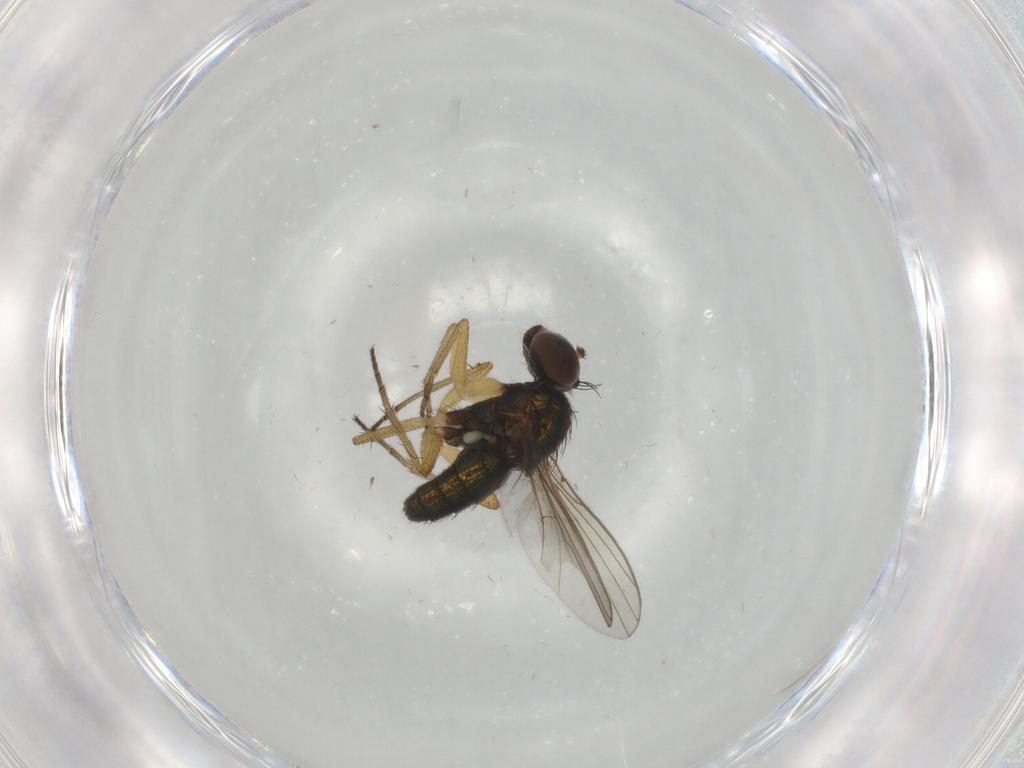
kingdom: Animalia
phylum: Arthropoda
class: Insecta
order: Diptera
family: Dolichopodidae
